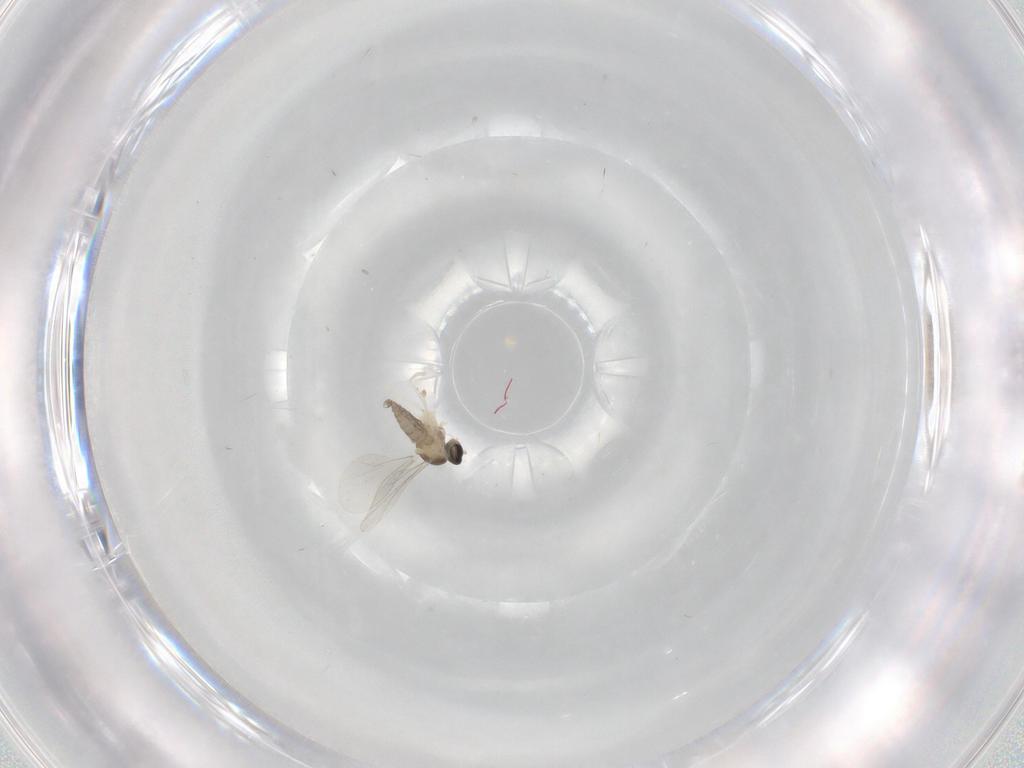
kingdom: Animalia
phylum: Arthropoda
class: Insecta
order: Diptera
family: Cecidomyiidae
